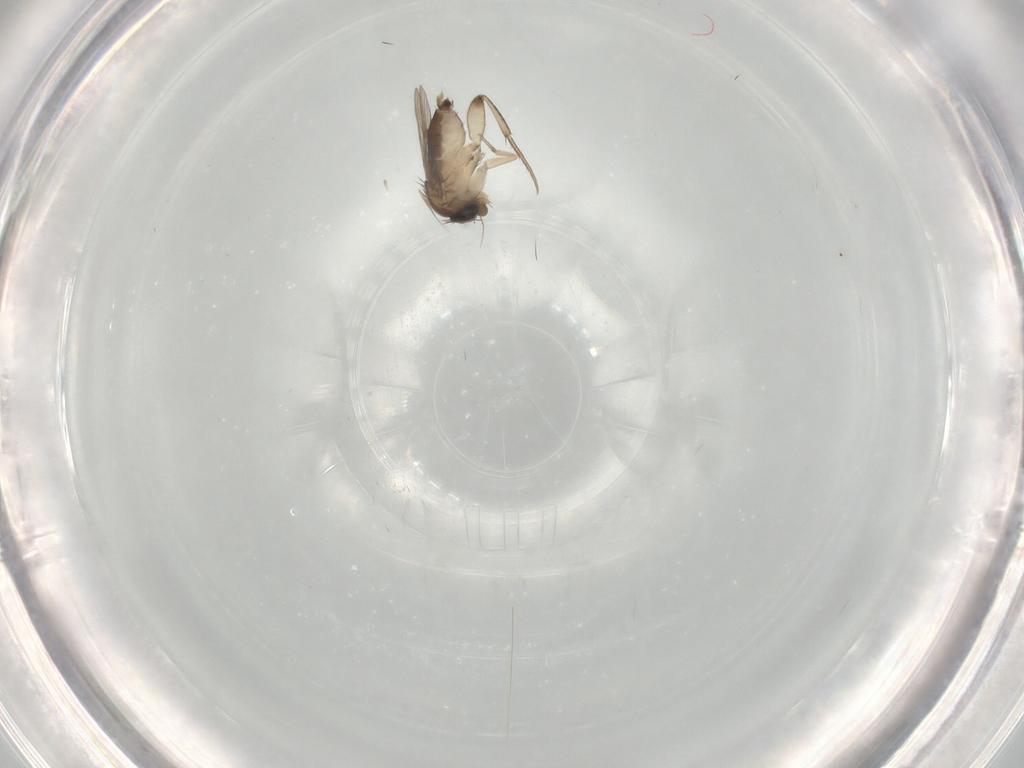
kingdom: Animalia
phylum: Arthropoda
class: Insecta
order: Diptera
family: Phoridae
